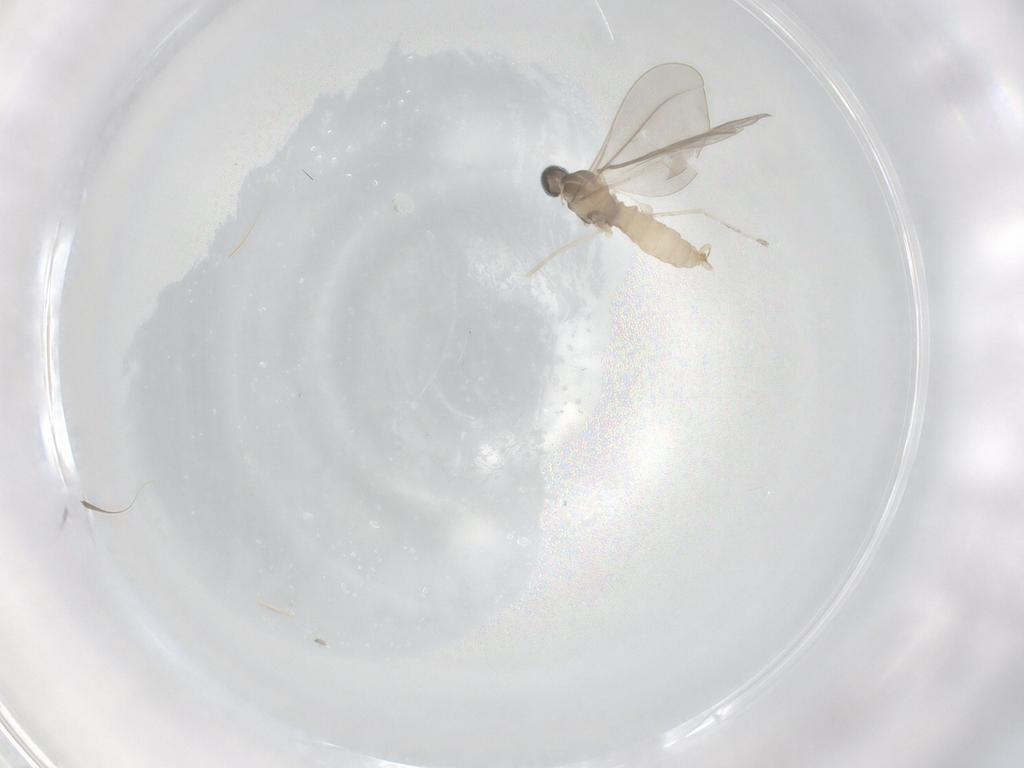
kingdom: Animalia
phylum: Arthropoda
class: Insecta
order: Diptera
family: Cecidomyiidae
